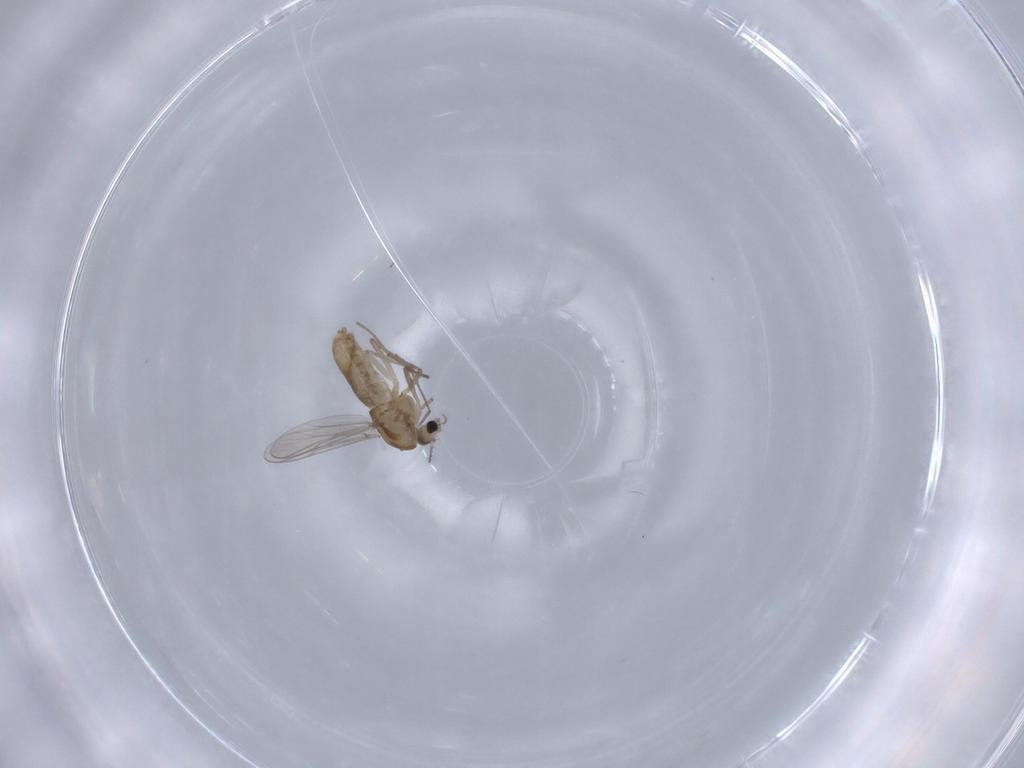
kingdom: Animalia
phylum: Arthropoda
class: Insecta
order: Diptera
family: Chironomidae
